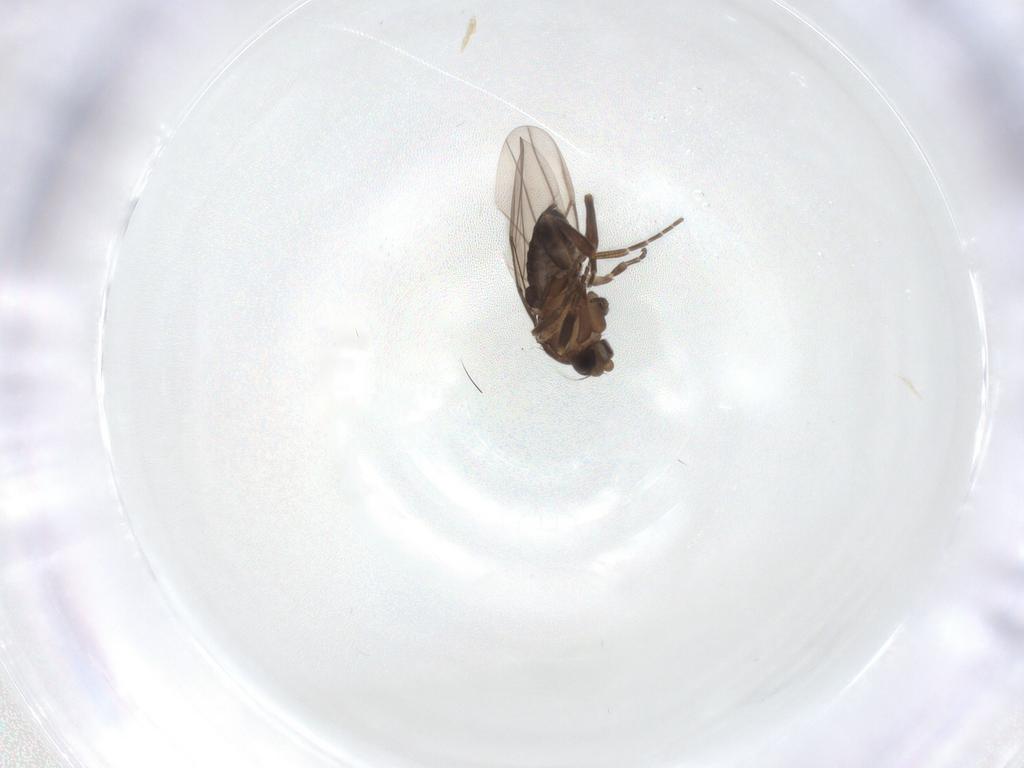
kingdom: Animalia
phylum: Arthropoda
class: Insecta
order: Diptera
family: Phoridae
